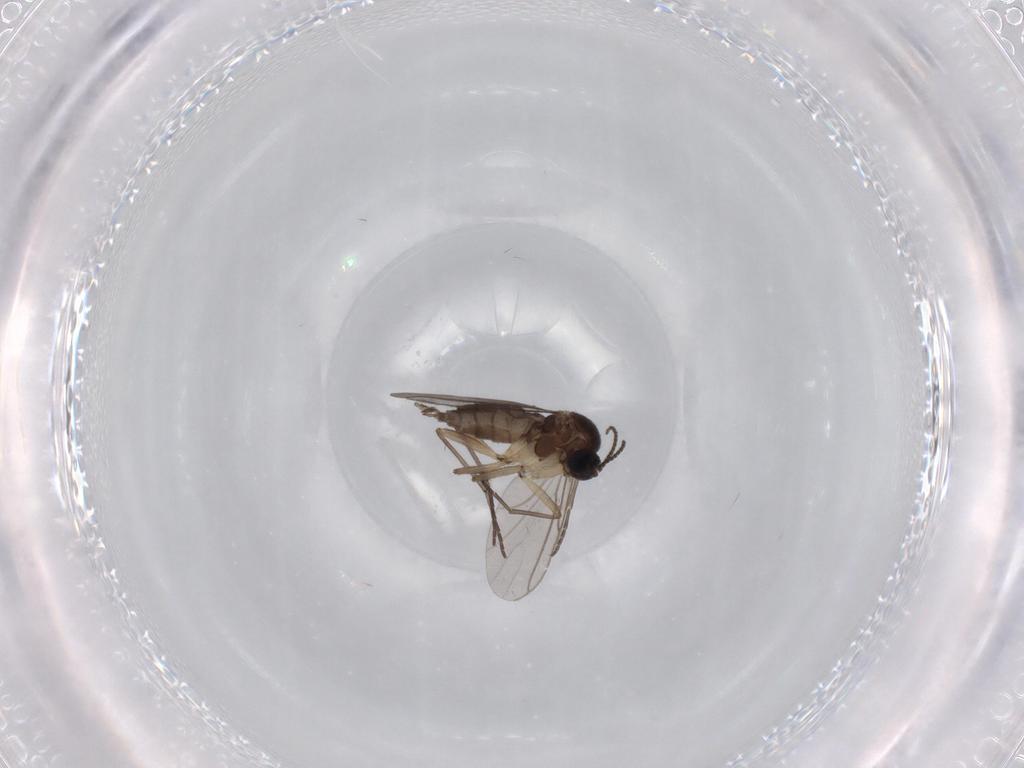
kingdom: Animalia
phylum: Arthropoda
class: Insecta
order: Diptera
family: Sciaridae
